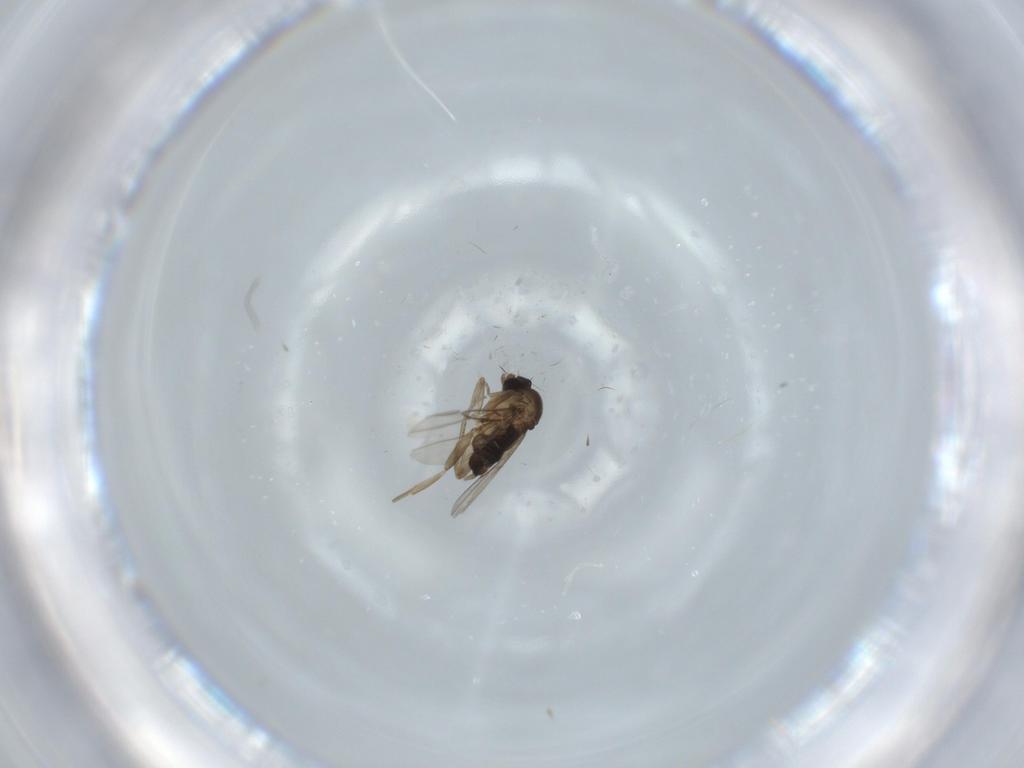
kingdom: Animalia
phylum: Arthropoda
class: Insecta
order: Diptera
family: Phoridae
